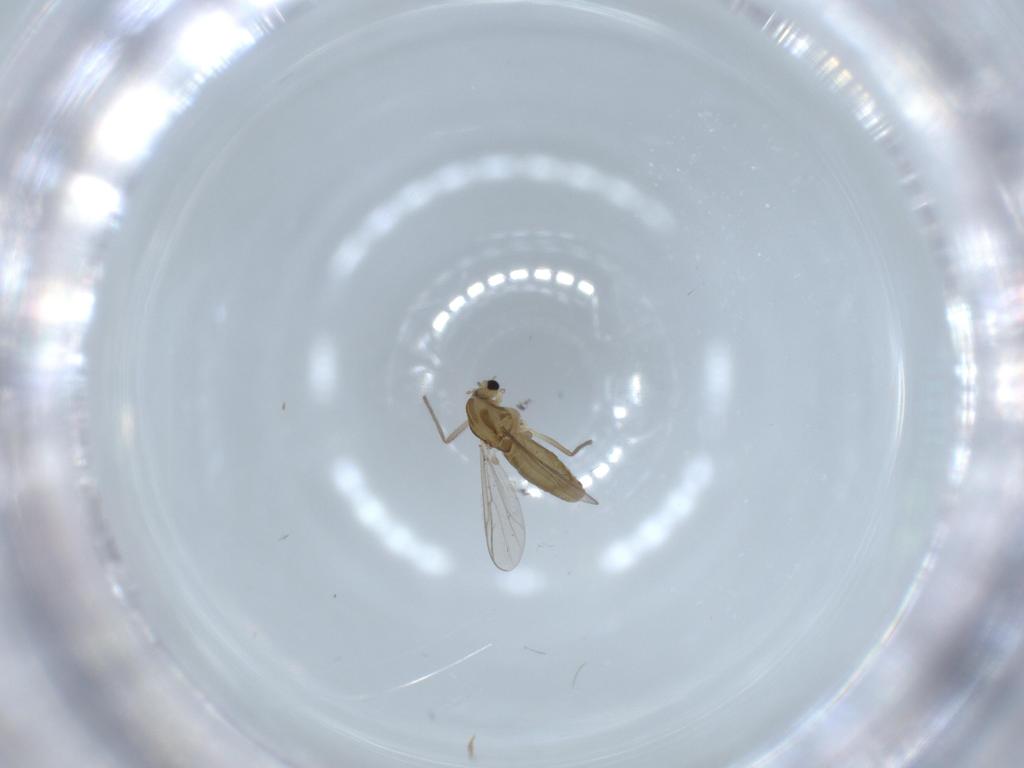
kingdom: Animalia
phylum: Arthropoda
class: Insecta
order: Diptera
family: Chironomidae
